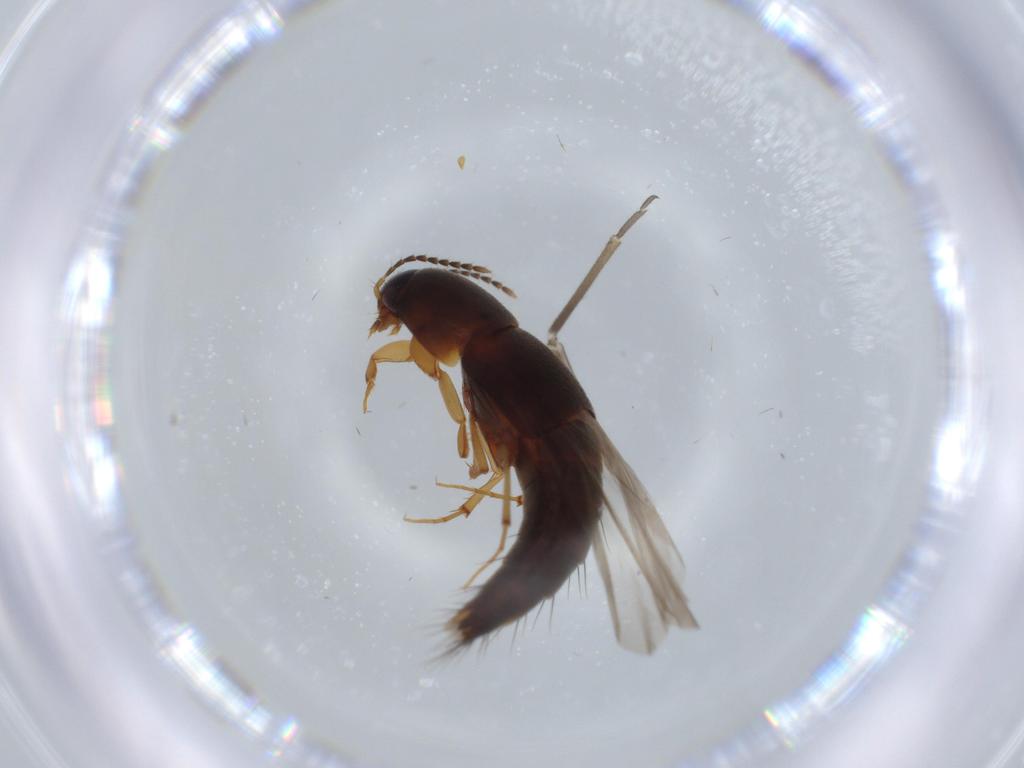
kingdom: Animalia
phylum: Arthropoda
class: Insecta
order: Coleoptera
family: Staphylinidae
